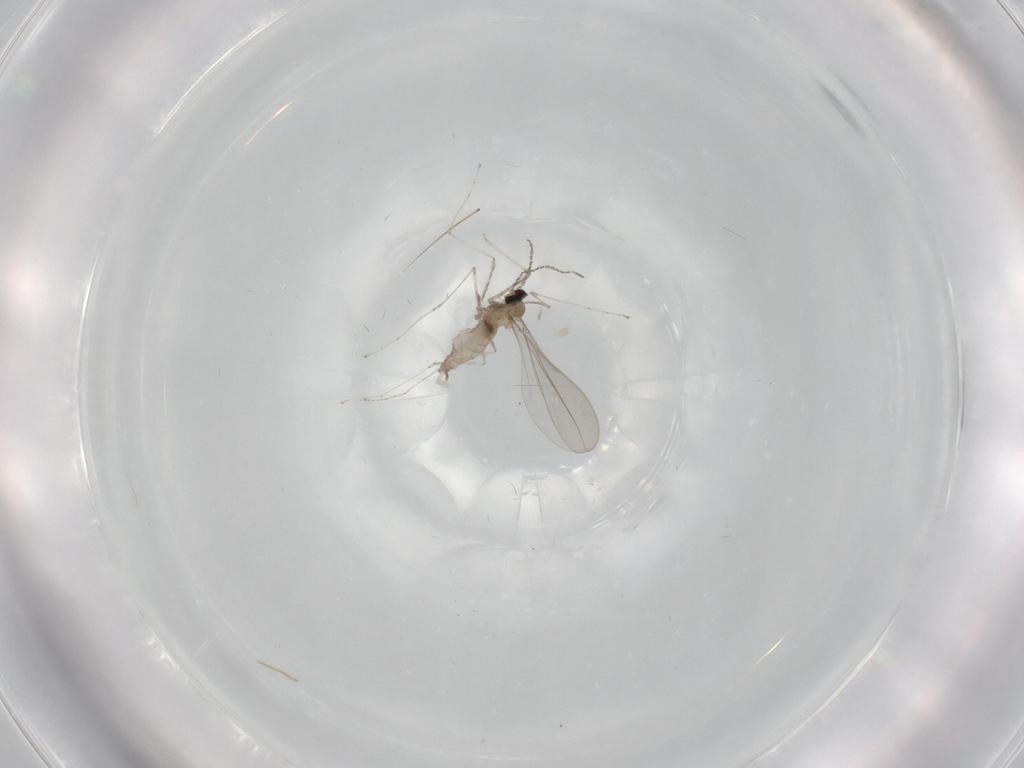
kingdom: Animalia
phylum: Arthropoda
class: Insecta
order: Diptera
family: Cecidomyiidae
